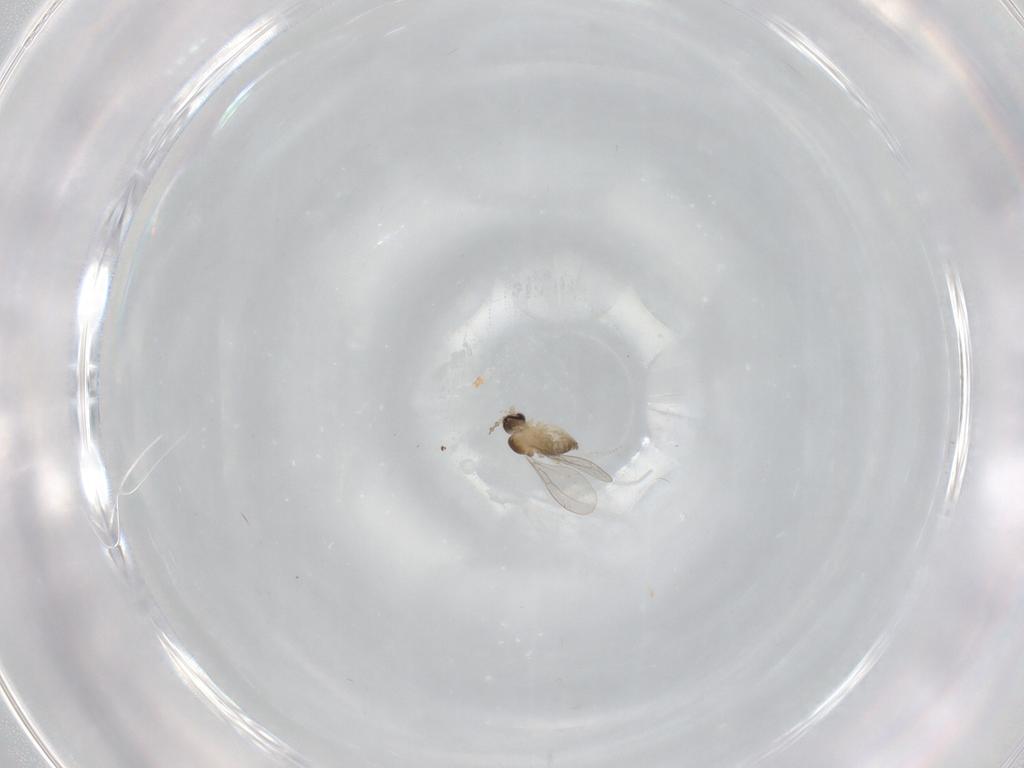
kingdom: Animalia
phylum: Arthropoda
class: Insecta
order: Diptera
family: Cecidomyiidae
